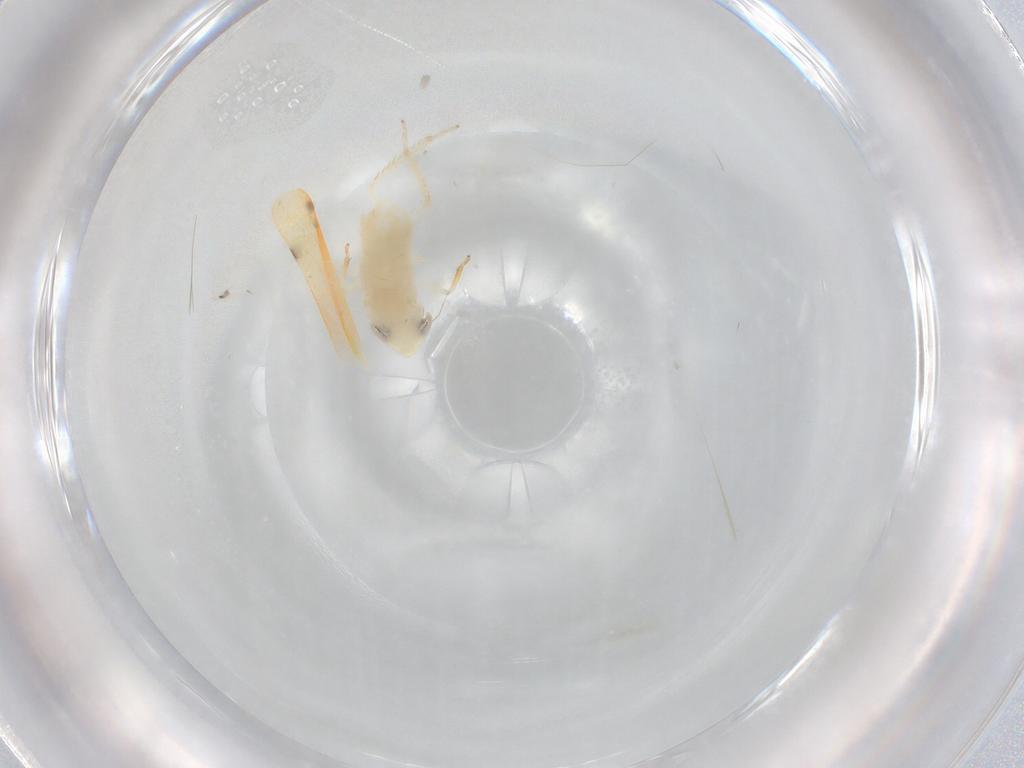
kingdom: Animalia
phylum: Arthropoda
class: Insecta
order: Hemiptera
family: Cicadellidae
